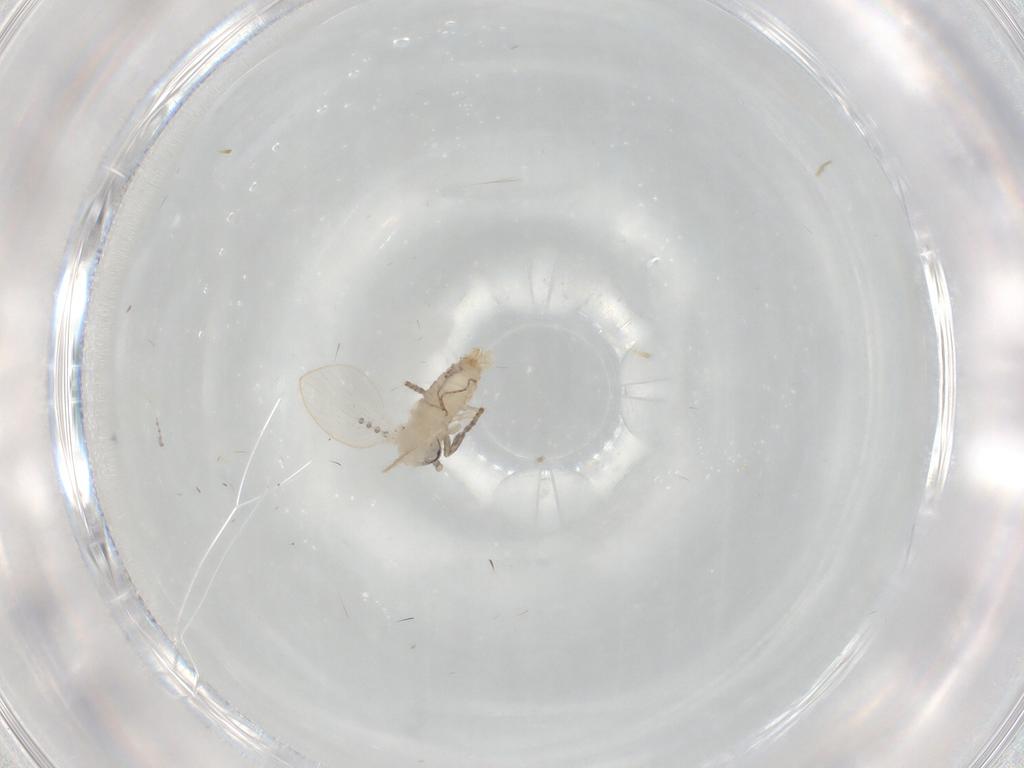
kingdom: Animalia
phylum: Arthropoda
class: Insecta
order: Diptera
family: Psychodidae
